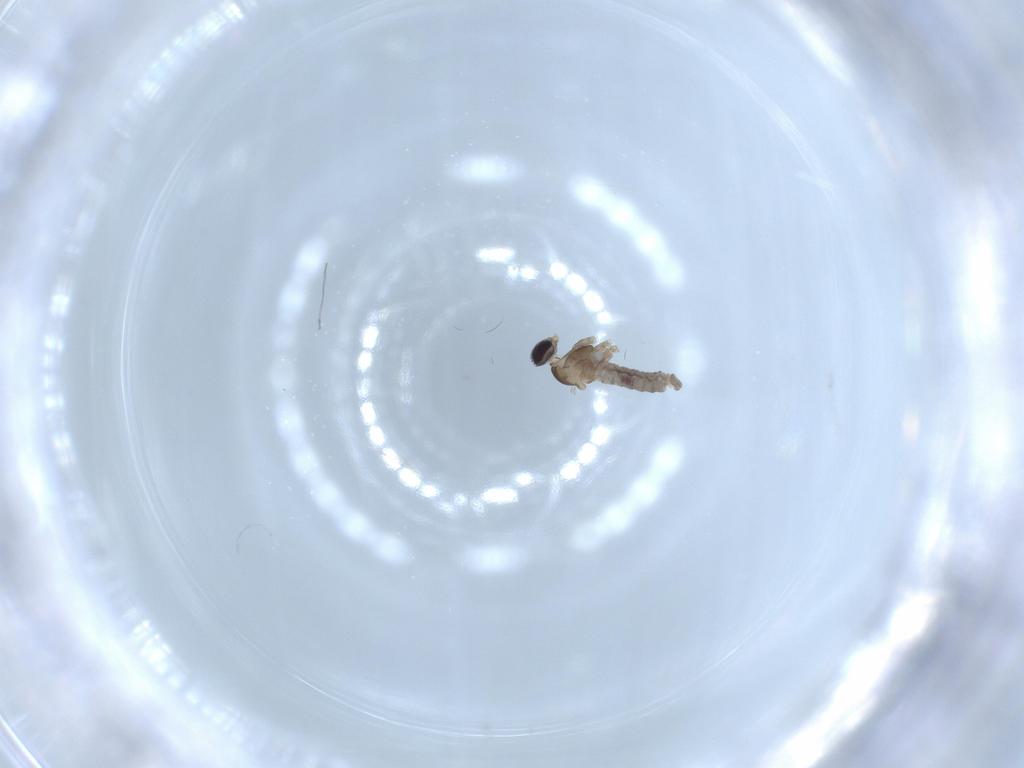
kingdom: Animalia
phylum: Arthropoda
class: Insecta
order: Diptera
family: Cecidomyiidae
